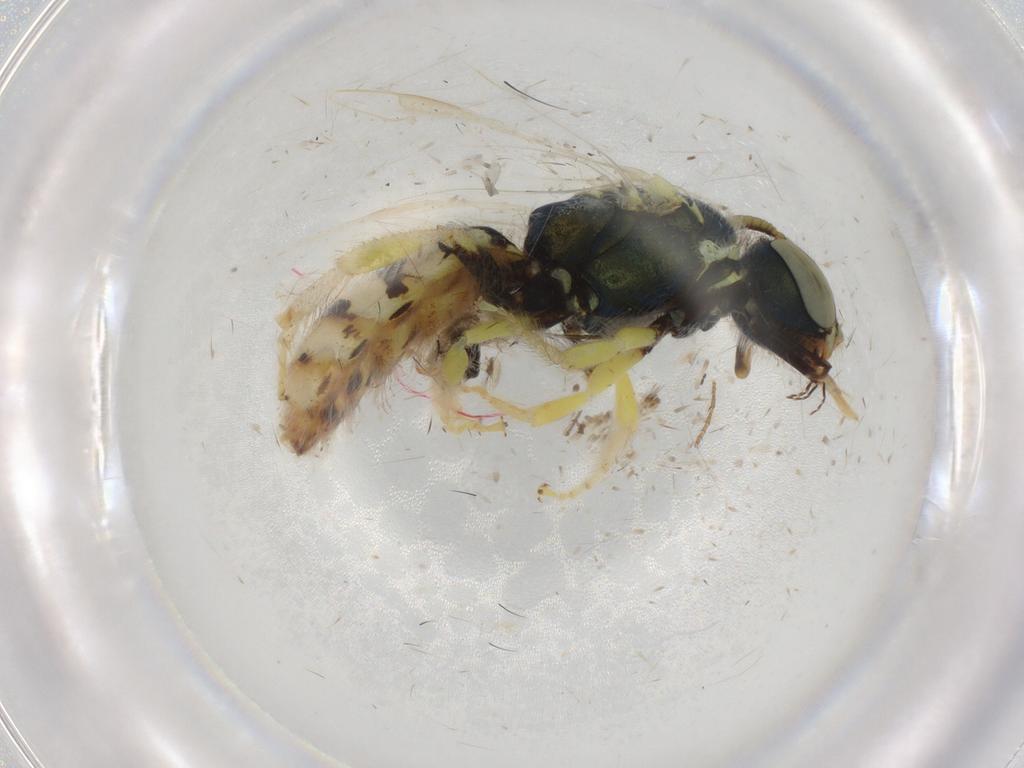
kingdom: Animalia
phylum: Arthropoda
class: Insecta
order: Hymenoptera
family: Signiphoridae
